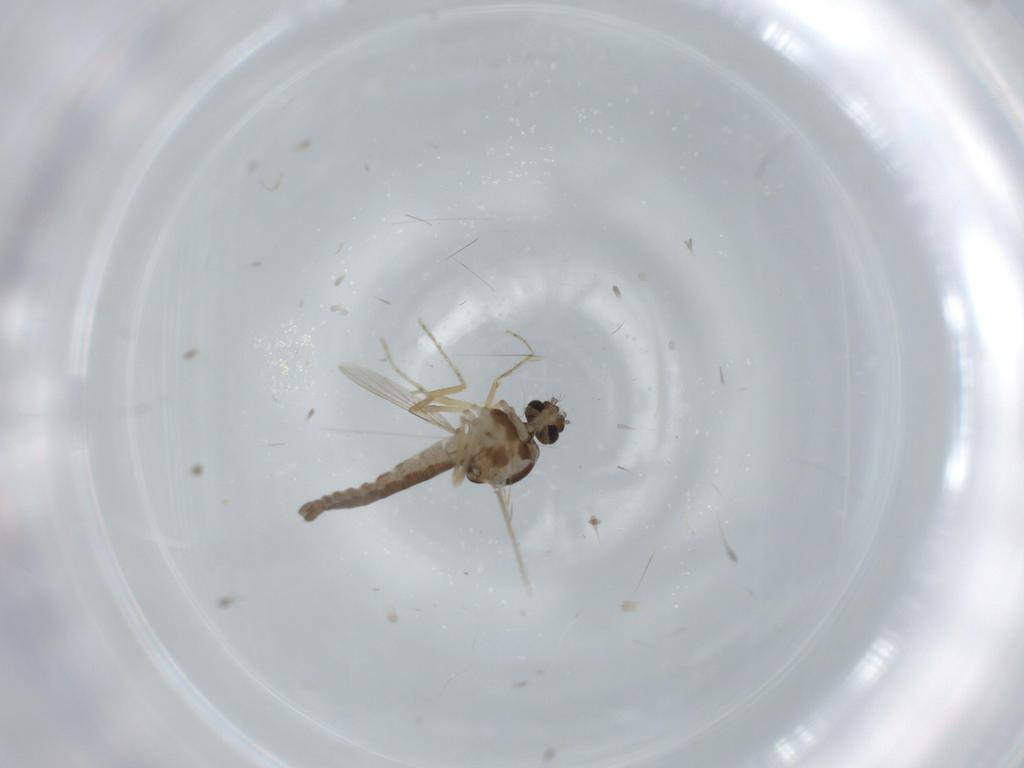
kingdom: Animalia
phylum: Arthropoda
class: Insecta
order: Diptera
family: Ceratopogonidae
